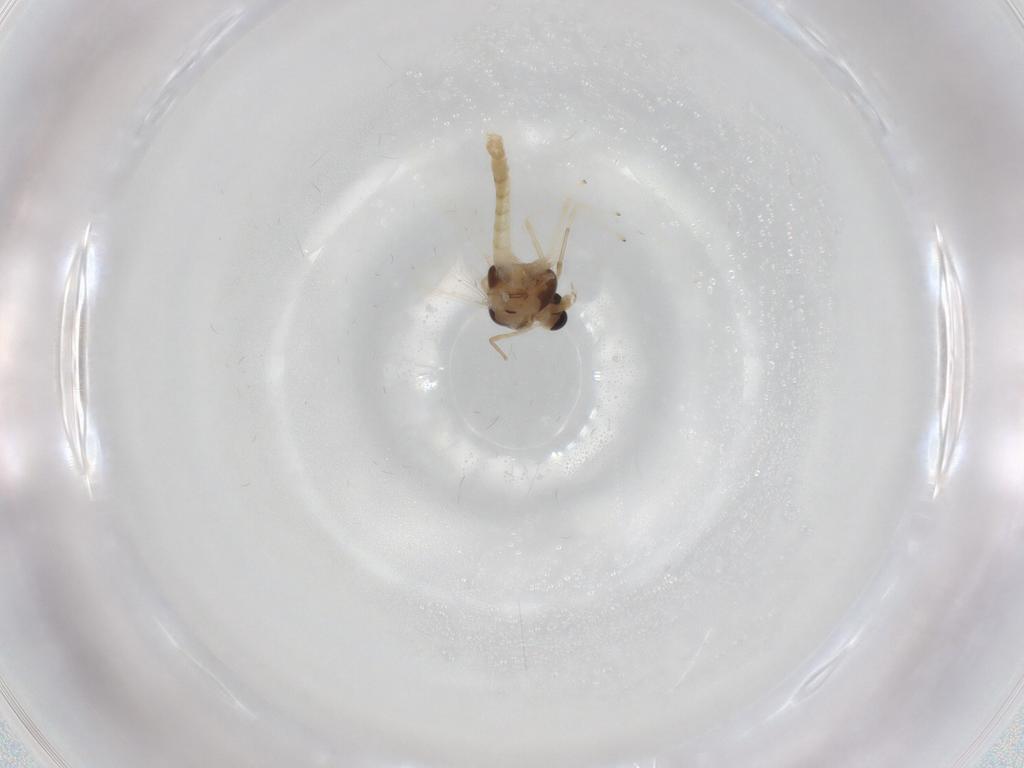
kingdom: Animalia
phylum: Arthropoda
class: Insecta
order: Diptera
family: Chironomidae
